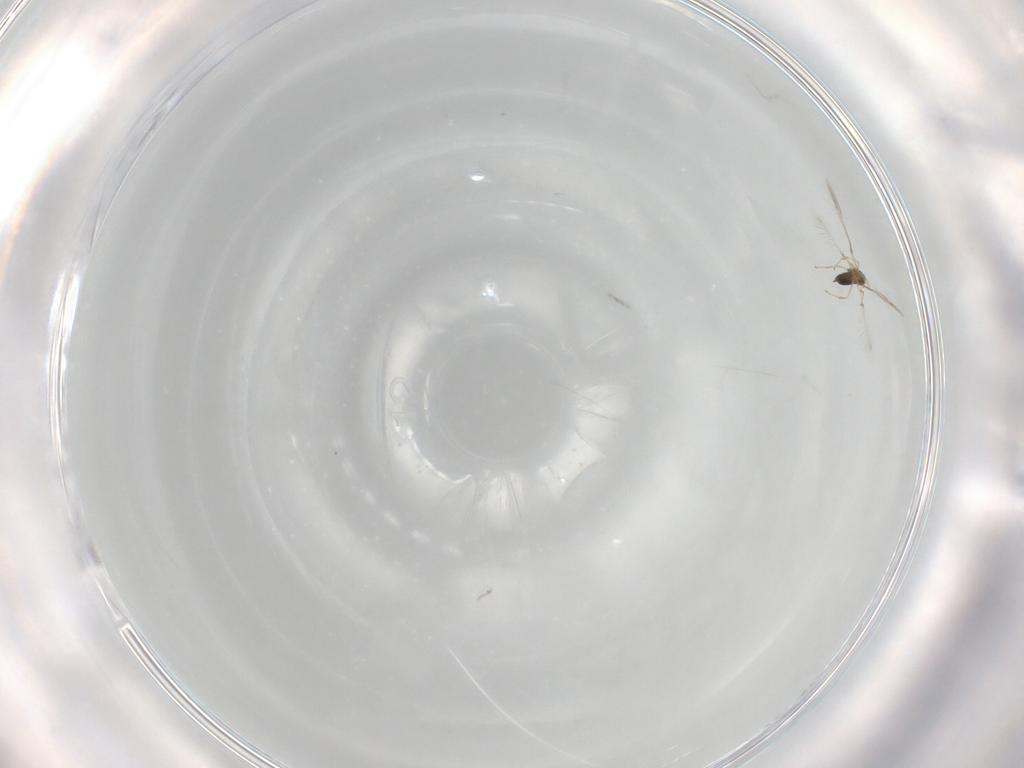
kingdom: Animalia
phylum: Arthropoda
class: Insecta
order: Hymenoptera
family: Mymaridae
